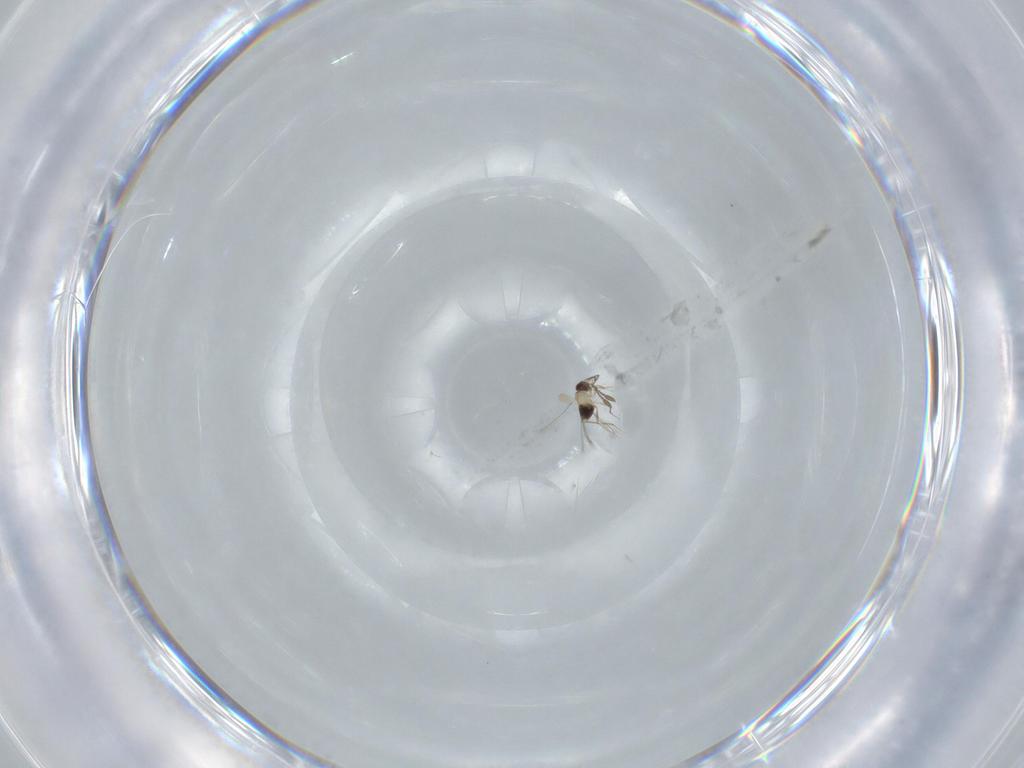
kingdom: Animalia
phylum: Arthropoda
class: Insecta
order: Hymenoptera
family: Mymaridae
